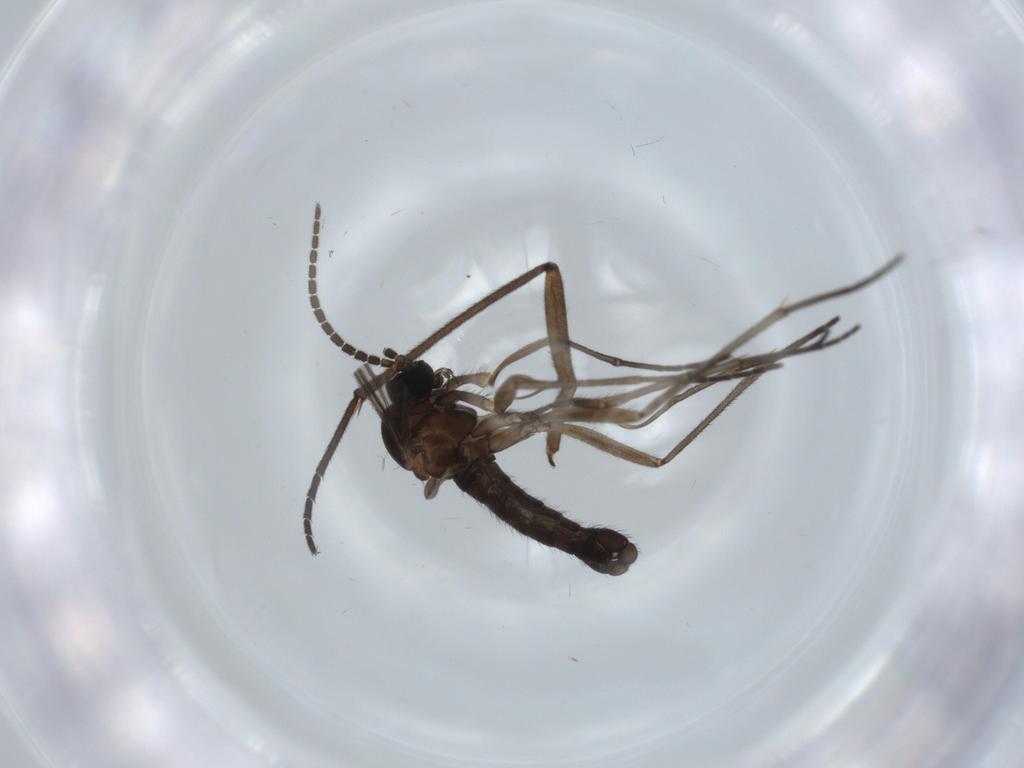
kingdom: Animalia
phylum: Arthropoda
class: Insecta
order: Diptera
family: Sciaridae
